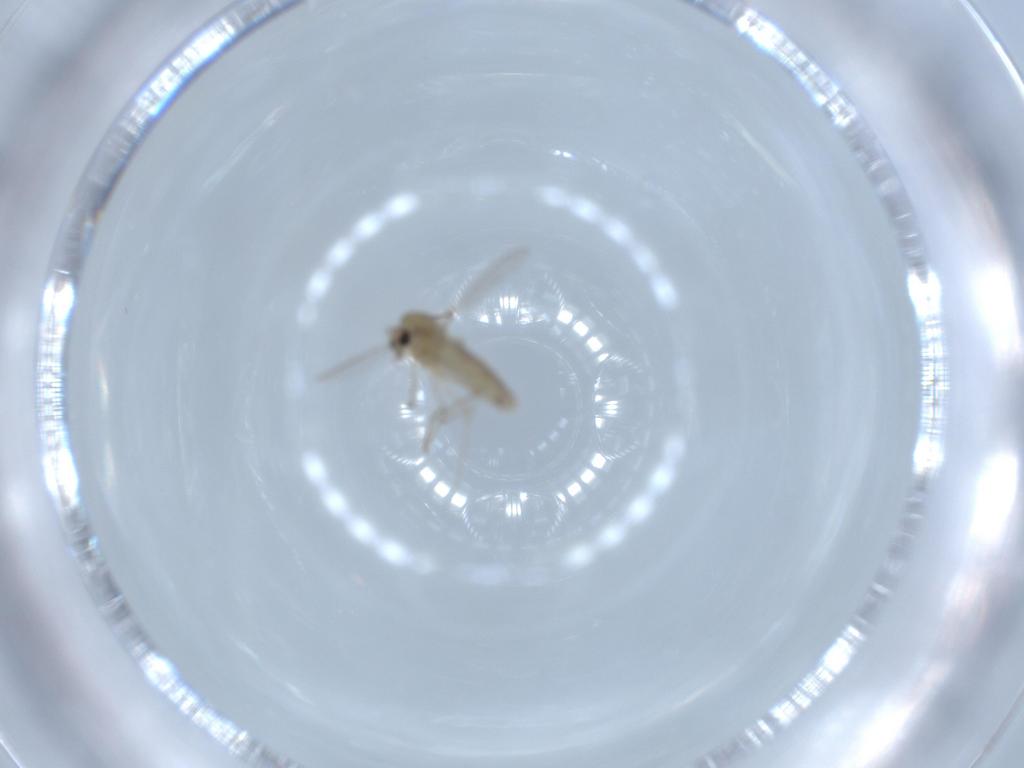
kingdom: Animalia
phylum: Arthropoda
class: Insecta
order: Diptera
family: Chironomidae
